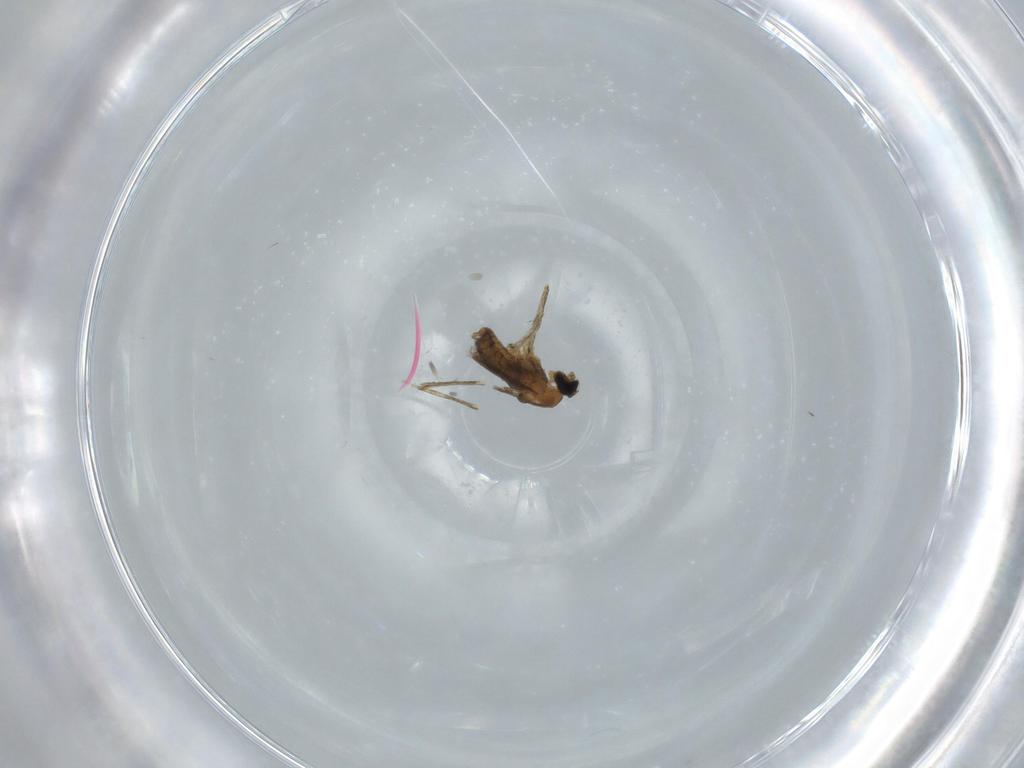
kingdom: Animalia
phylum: Arthropoda
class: Insecta
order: Diptera
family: Cecidomyiidae
